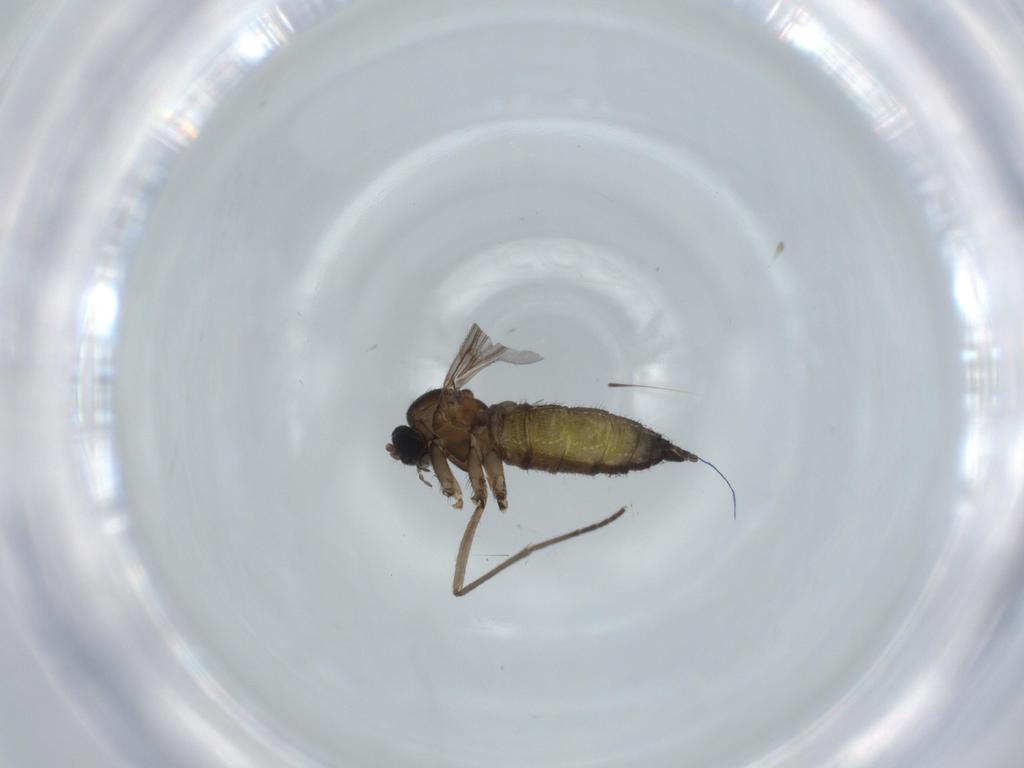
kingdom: Animalia
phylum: Arthropoda
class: Insecta
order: Diptera
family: Sciaridae
